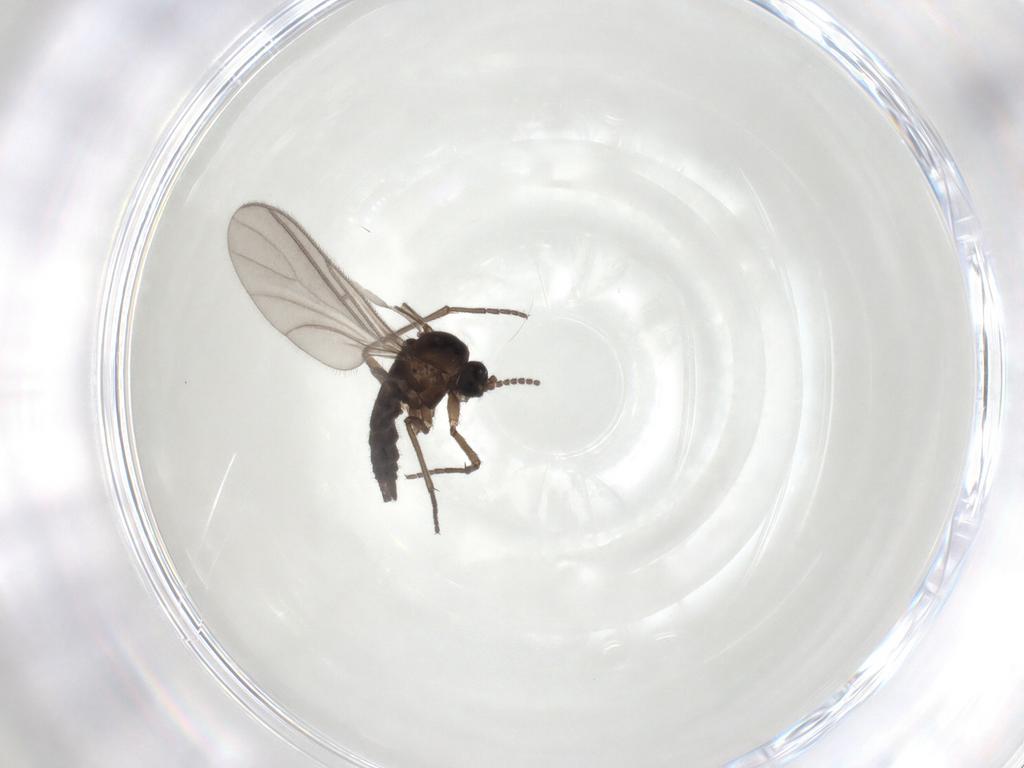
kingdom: Animalia
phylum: Arthropoda
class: Insecta
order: Diptera
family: Sciaridae
